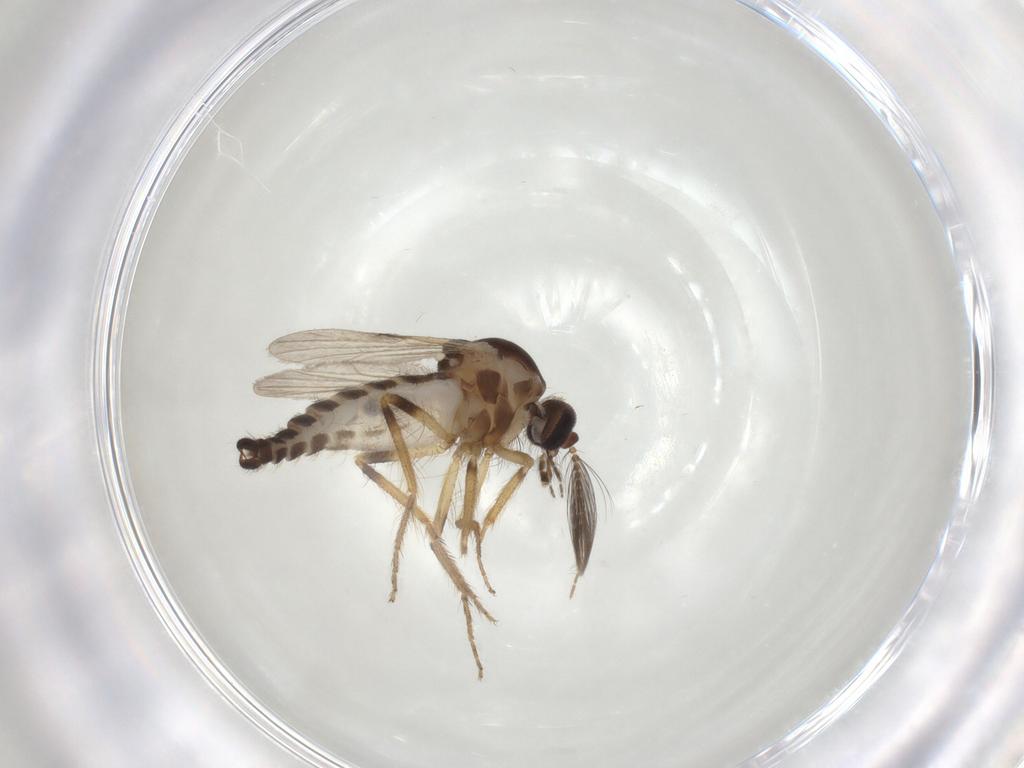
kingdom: Animalia
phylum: Arthropoda
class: Insecta
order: Diptera
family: Ceratopogonidae
